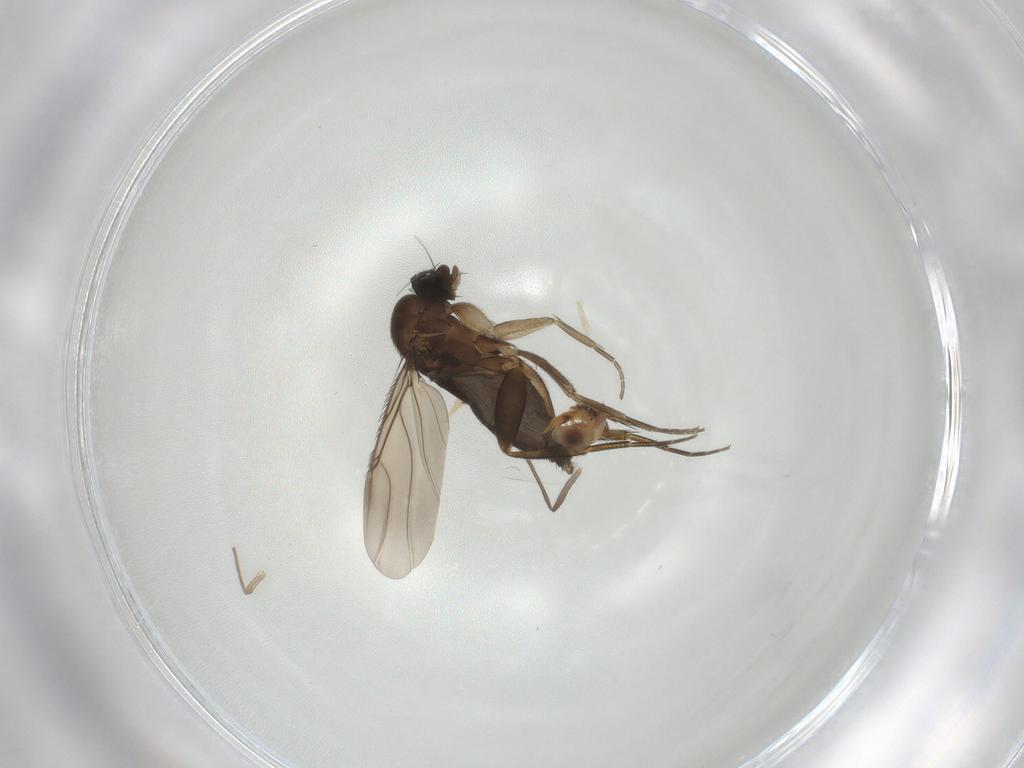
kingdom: Animalia
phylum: Arthropoda
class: Insecta
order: Diptera
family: Phoridae
